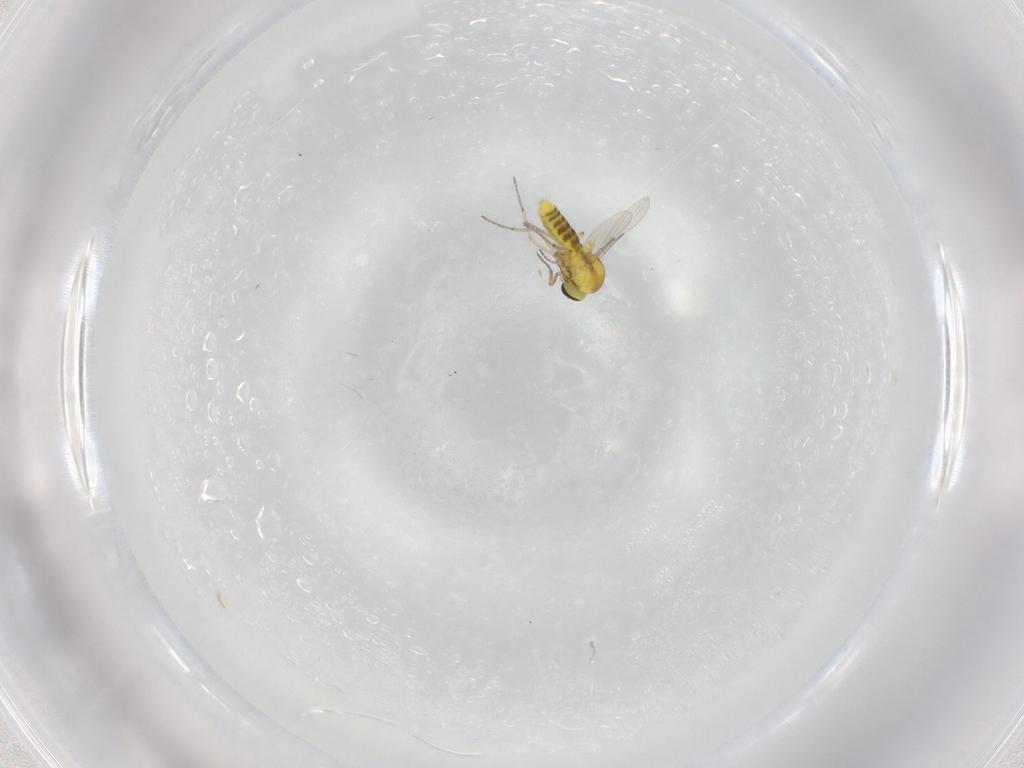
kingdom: Animalia
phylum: Arthropoda
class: Insecta
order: Diptera
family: Ceratopogonidae
